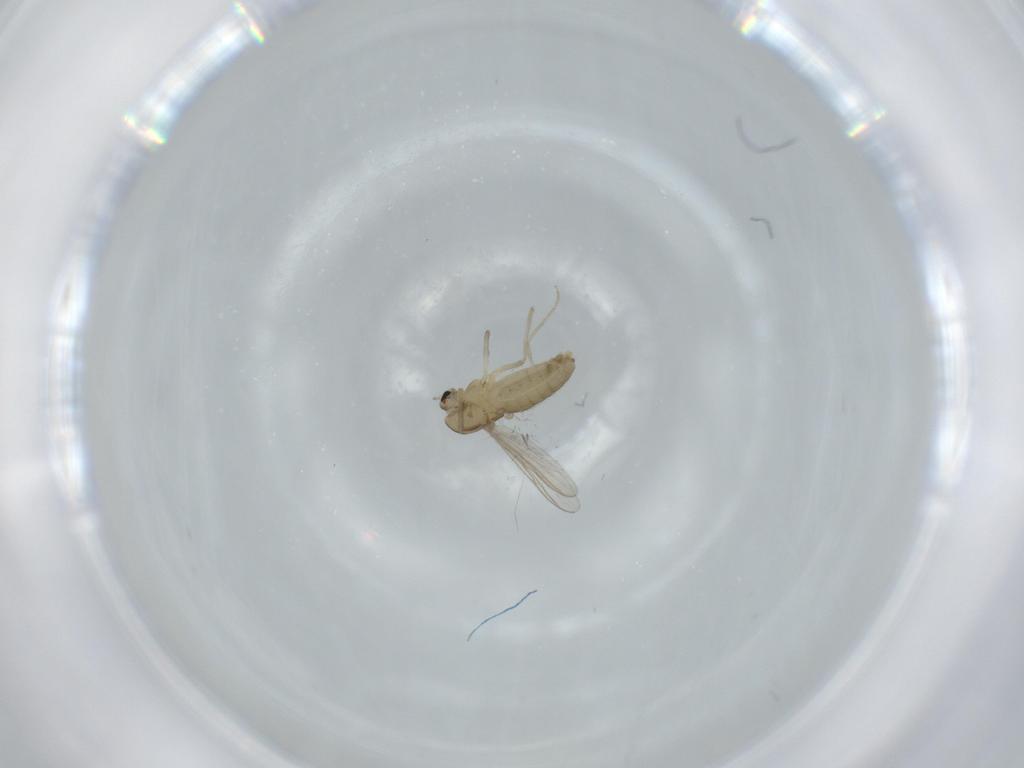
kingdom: Animalia
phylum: Arthropoda
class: Insecta
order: Diptera
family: Chironomidae
